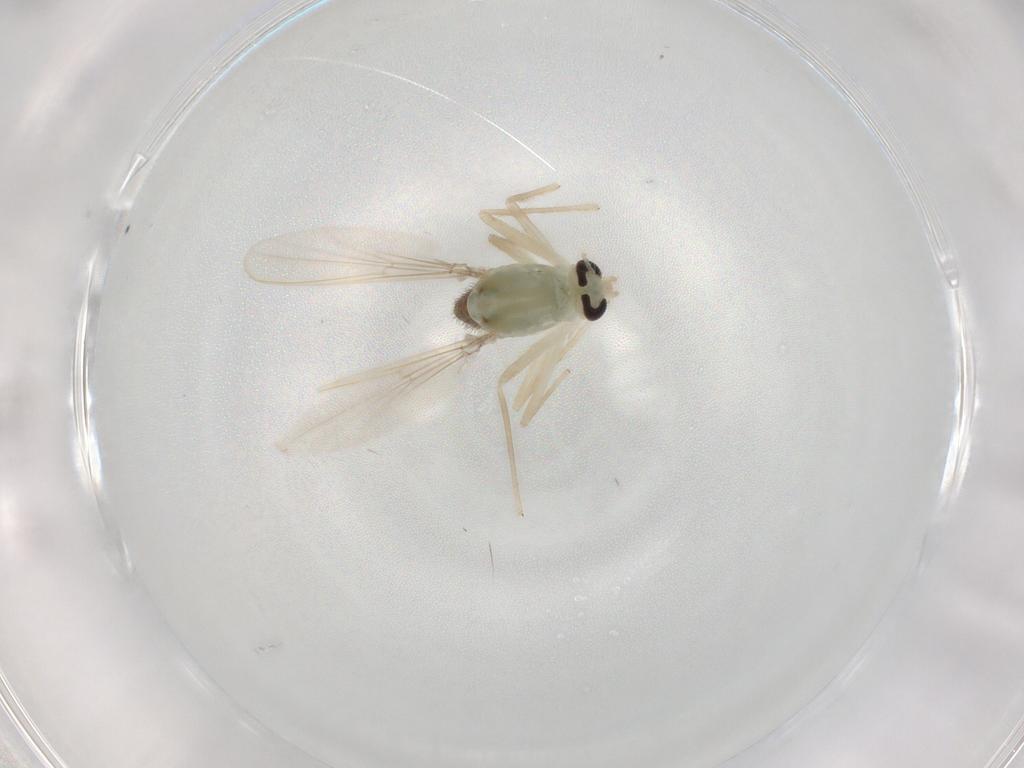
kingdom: Animalia
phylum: Arthropoda
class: Insecta
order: Diptera
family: Chironomidae
